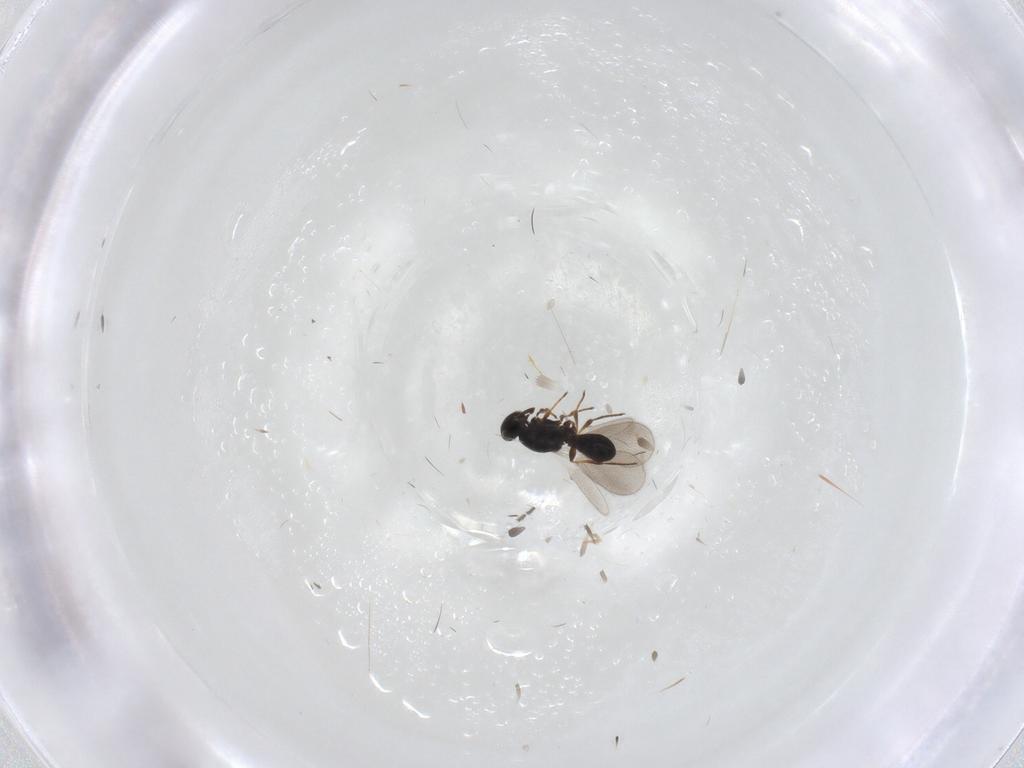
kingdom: Animalia
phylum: Arthropoda
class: Insecta
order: Hymenoptera
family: Platygastridae
